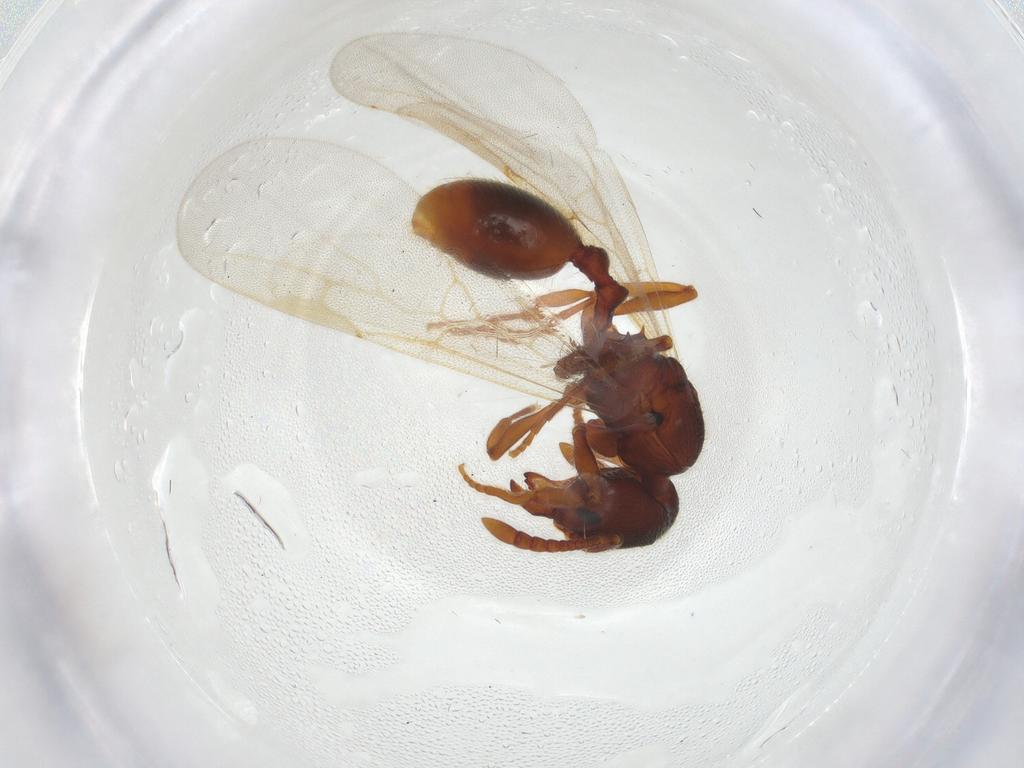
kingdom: Animalia
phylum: Arthropoda
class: Insecta
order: Hymenoptera
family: Formicidae
